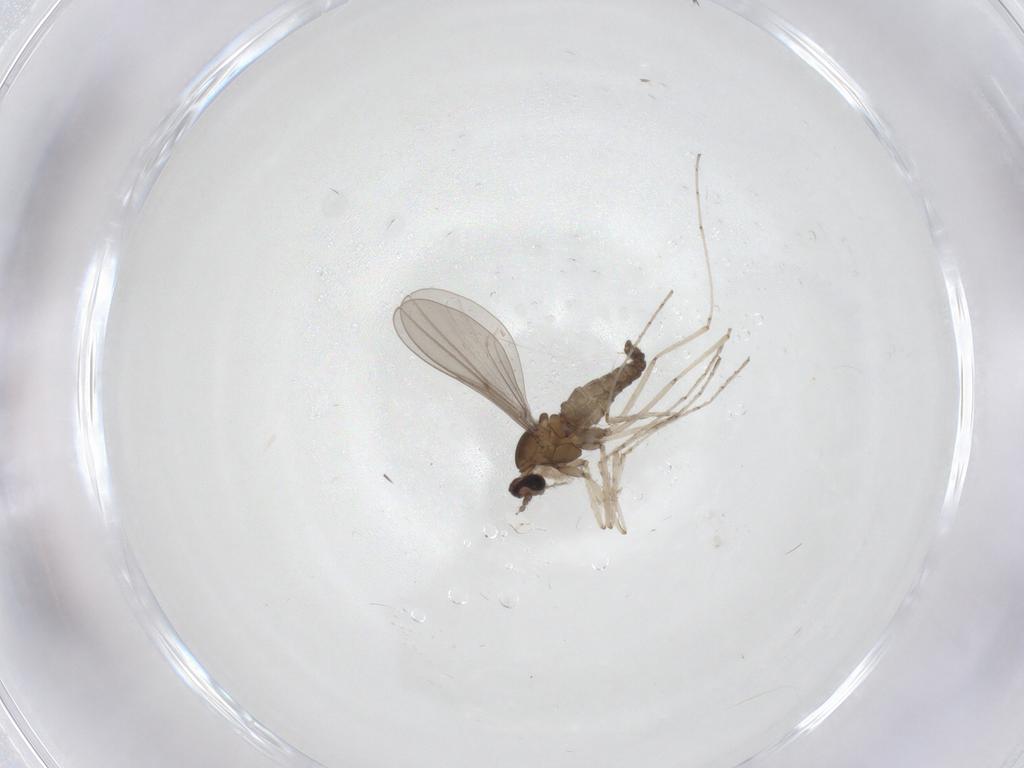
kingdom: Animalia
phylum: Arthropoda
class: Insecta
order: Diptera
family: Cecidomyiidae
